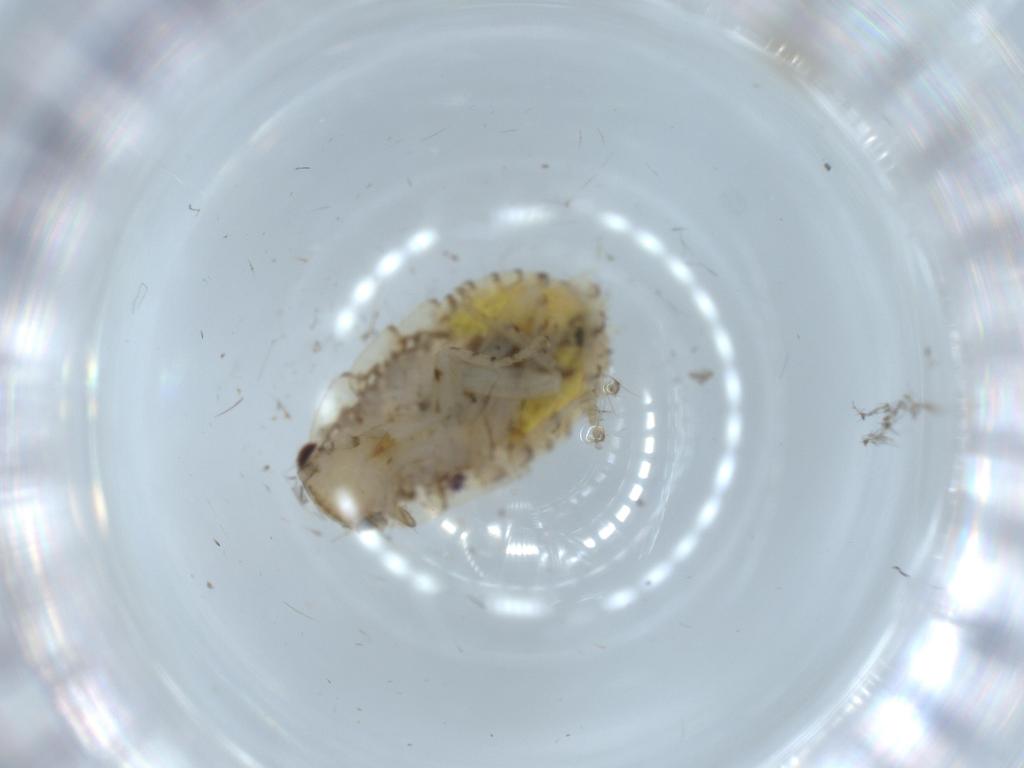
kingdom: Animalia
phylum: Arthropoda
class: Insecta
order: Blattodea
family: Ectobiidae
